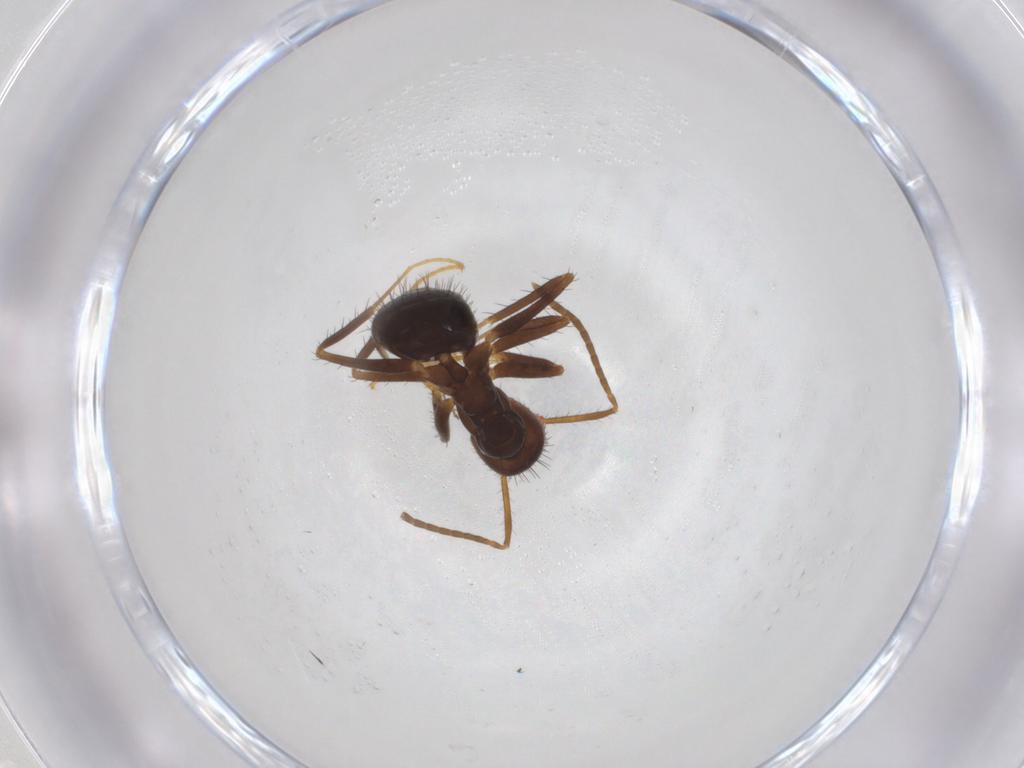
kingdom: Animalia
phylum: Arthropoda
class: Insecta
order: Hymenoptera
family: Formicidae
